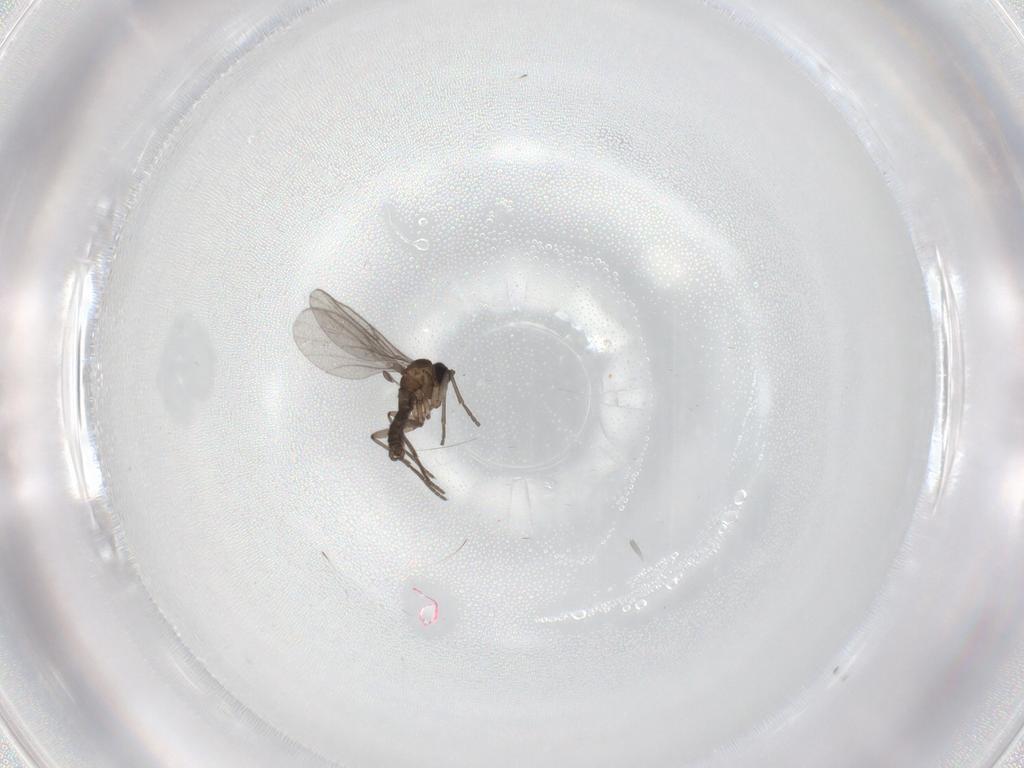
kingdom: Animalia
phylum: Arthropoda
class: Insecta
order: Diptera
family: Sciaridae
